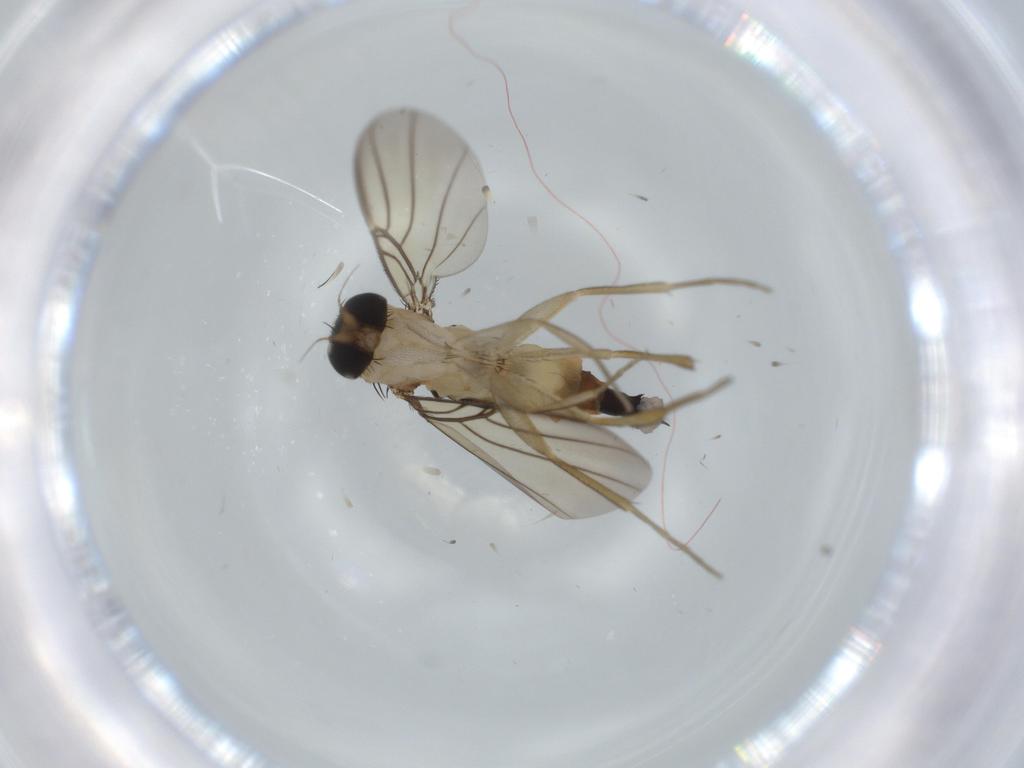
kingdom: Animalia
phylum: Arthropoda
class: Insecta
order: Diptera
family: Phoridae
